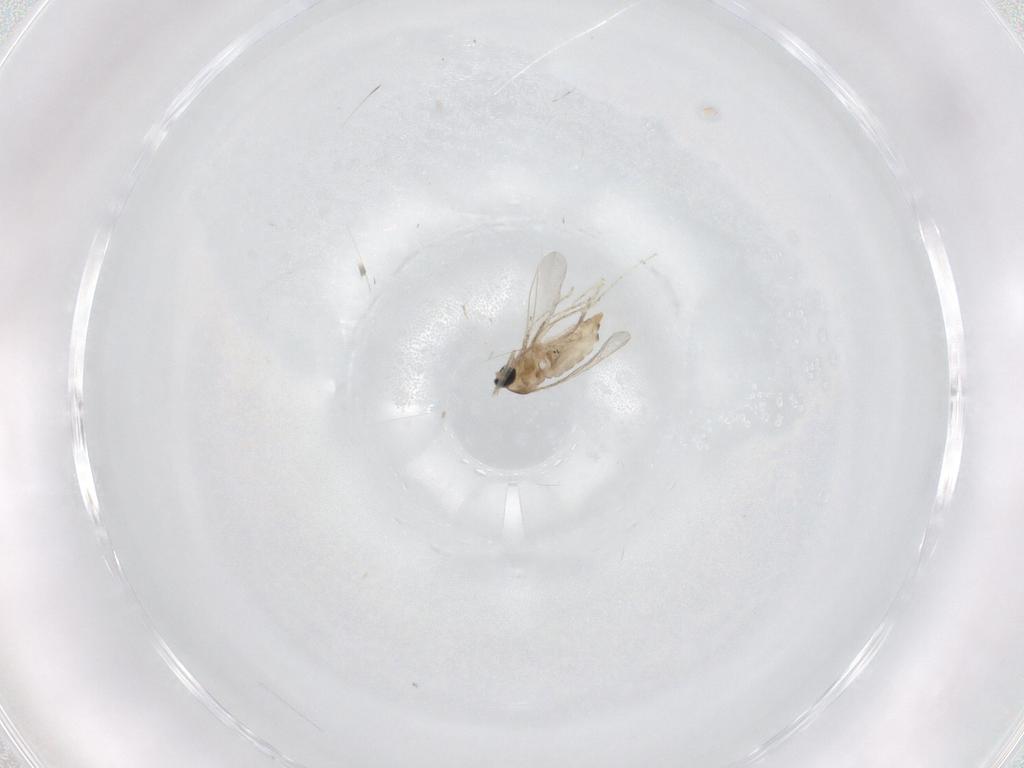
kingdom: Animalia
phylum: Arthropoda
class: Insecta
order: Diptera
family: Cecidomyiidae
